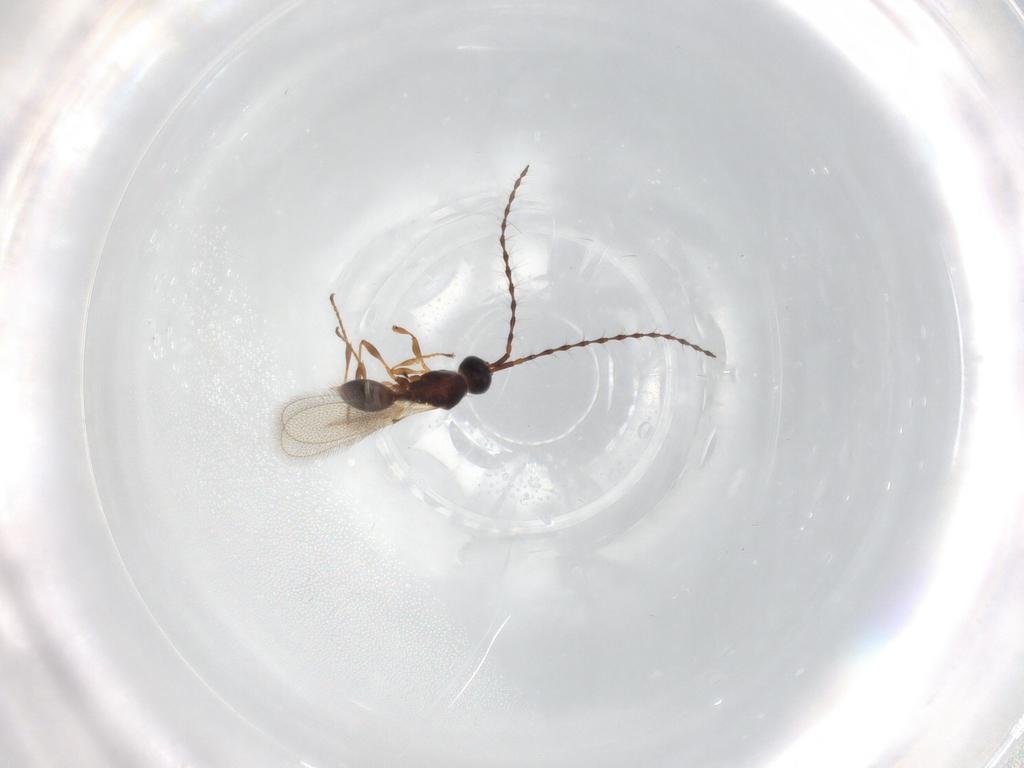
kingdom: Animalia
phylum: Arthropoda
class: Insecta
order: Hymenoptera
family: Diapriidae
